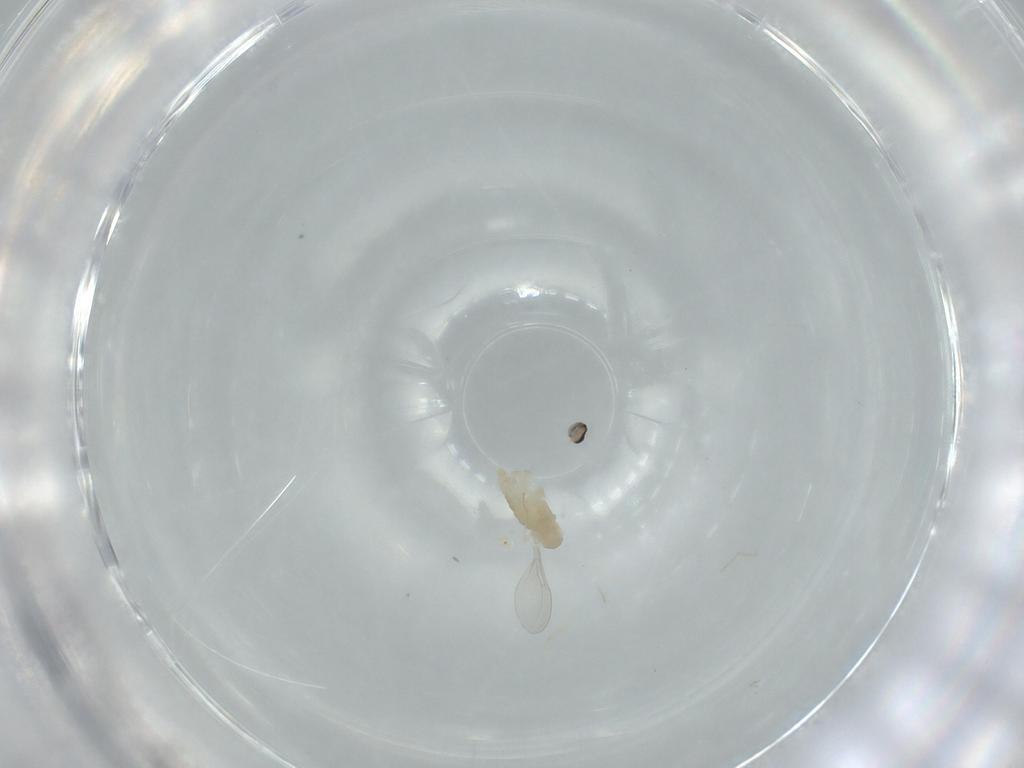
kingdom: Animalia
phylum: Arthropoda
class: Insecta
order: Diptera
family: Cecidomyiidae
